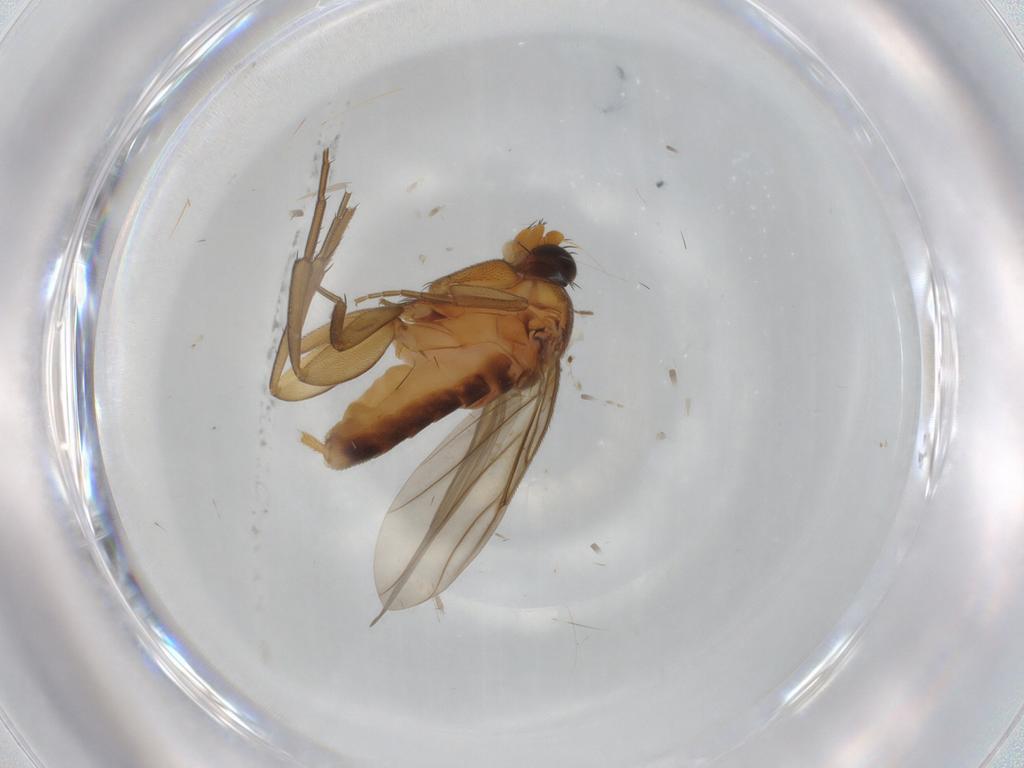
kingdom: Animalia
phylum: Arthropoda
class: Insecta
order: Diptera
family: Phoridae
